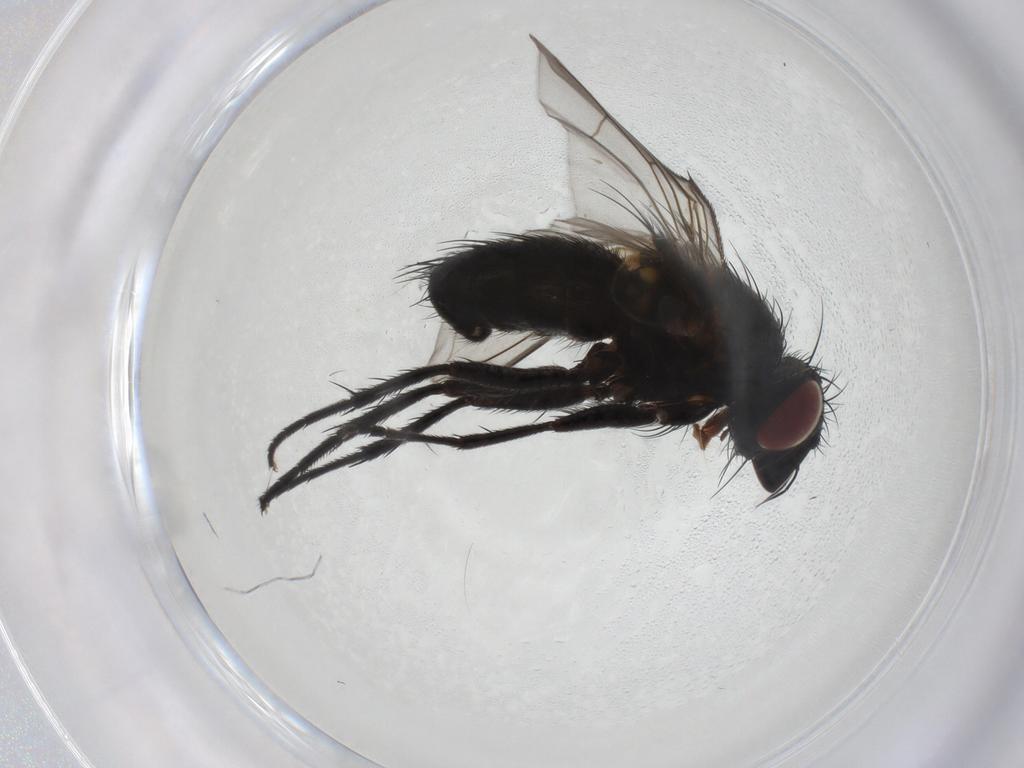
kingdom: Animalia
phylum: Arthropoda
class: Insecta
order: Diptera
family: Tachinidae
